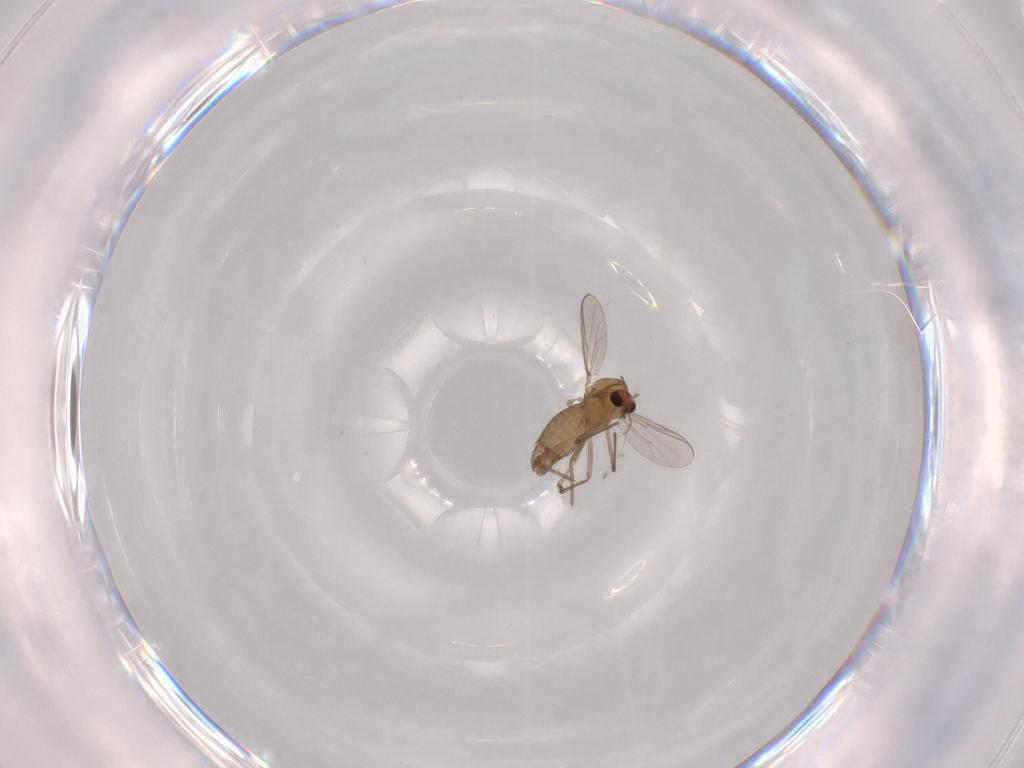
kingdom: Animalia
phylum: Arthropoda
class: Insecta
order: Diptera
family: Chironomidae
